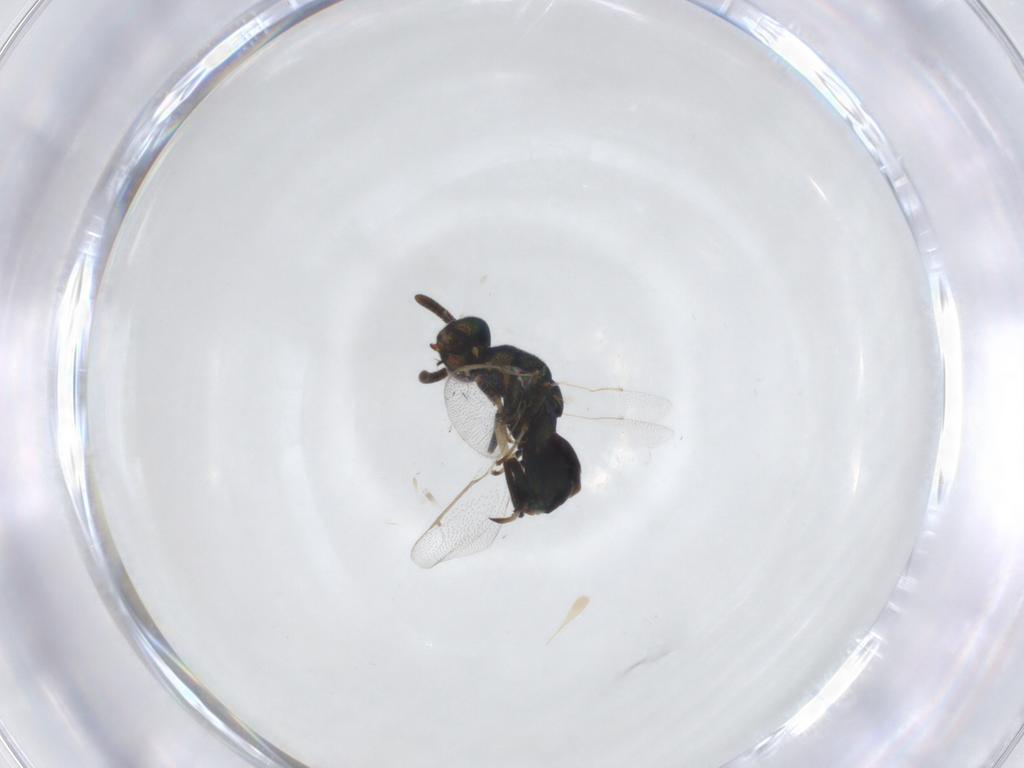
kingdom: Animalia
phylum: Arthropoda
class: Insecta
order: Hymenoptera
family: Torymidae
